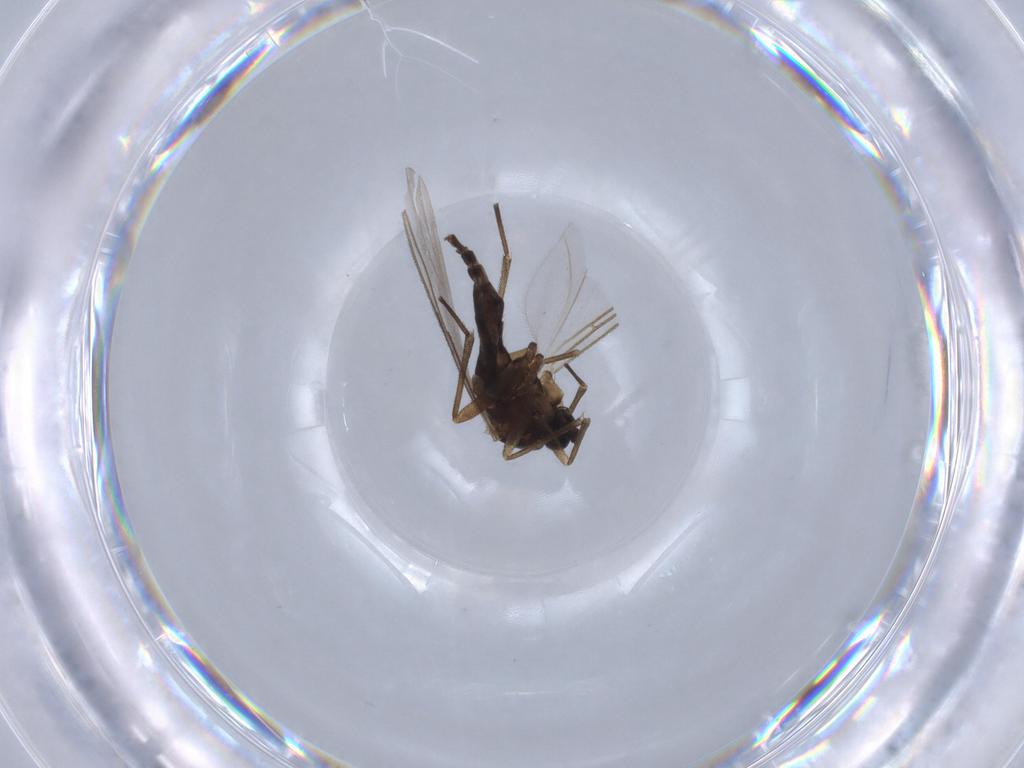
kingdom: Animalia
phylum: Arthropoda
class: Insecta
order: Diptera
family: Sciaridae
